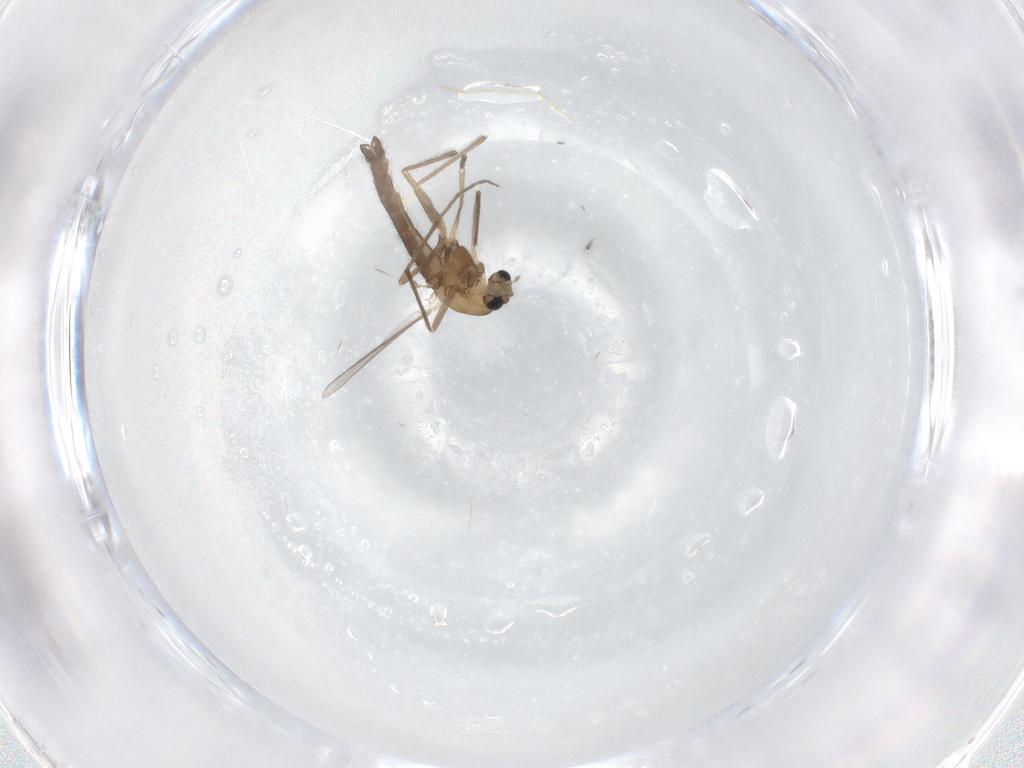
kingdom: Animalia
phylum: Arthropoda
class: Insecta
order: Diptera
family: Chironomidae
